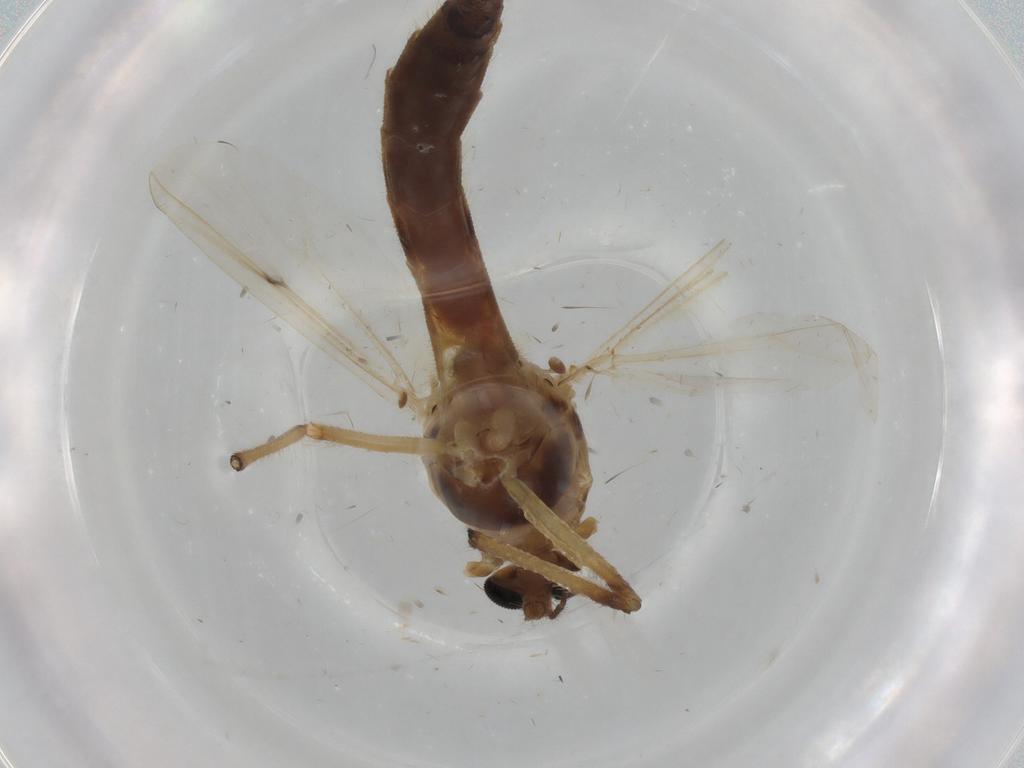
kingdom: Animalia
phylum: Arthropoda
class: Insecta
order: Diptera
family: Chironomidae
